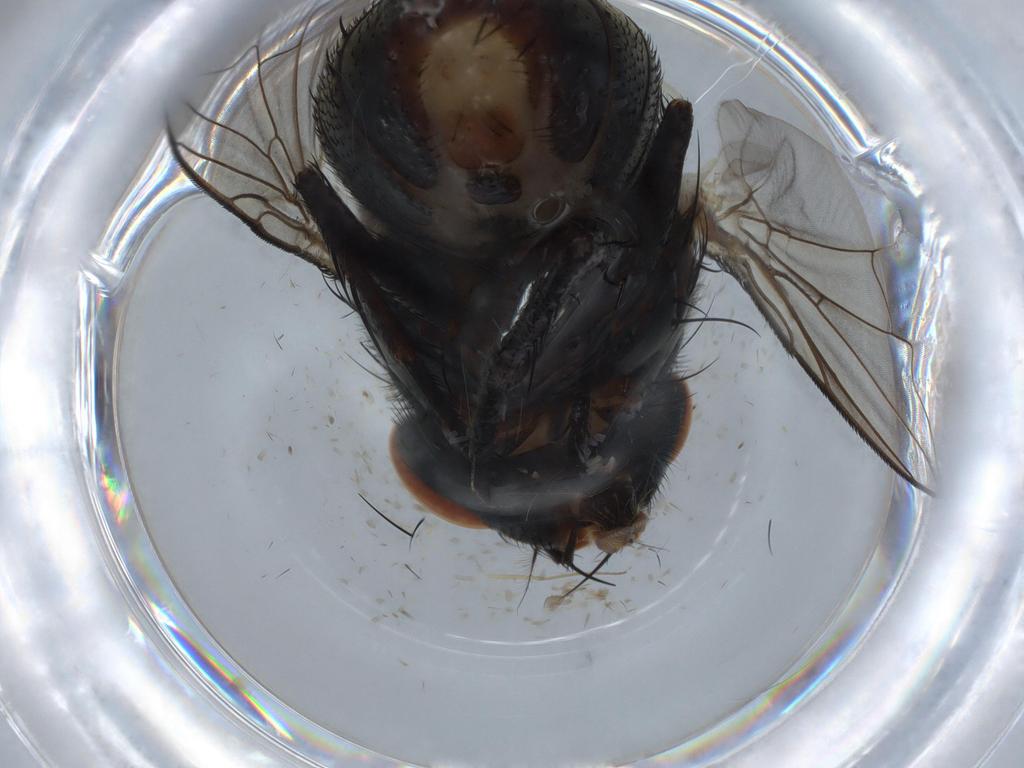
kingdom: Animalia
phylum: Arthropoda
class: Insecta
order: Diptera
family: Sarcophagidae
